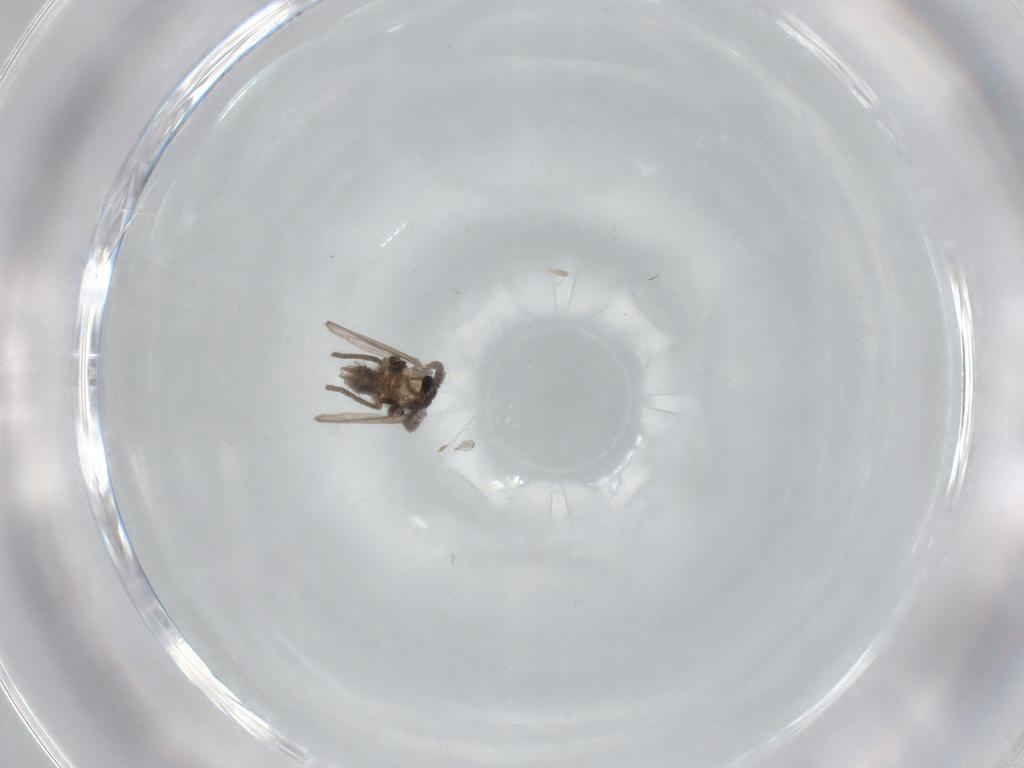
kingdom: Animalia
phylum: Arthropoda
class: Insecta
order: Diptera
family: Psychodidae
